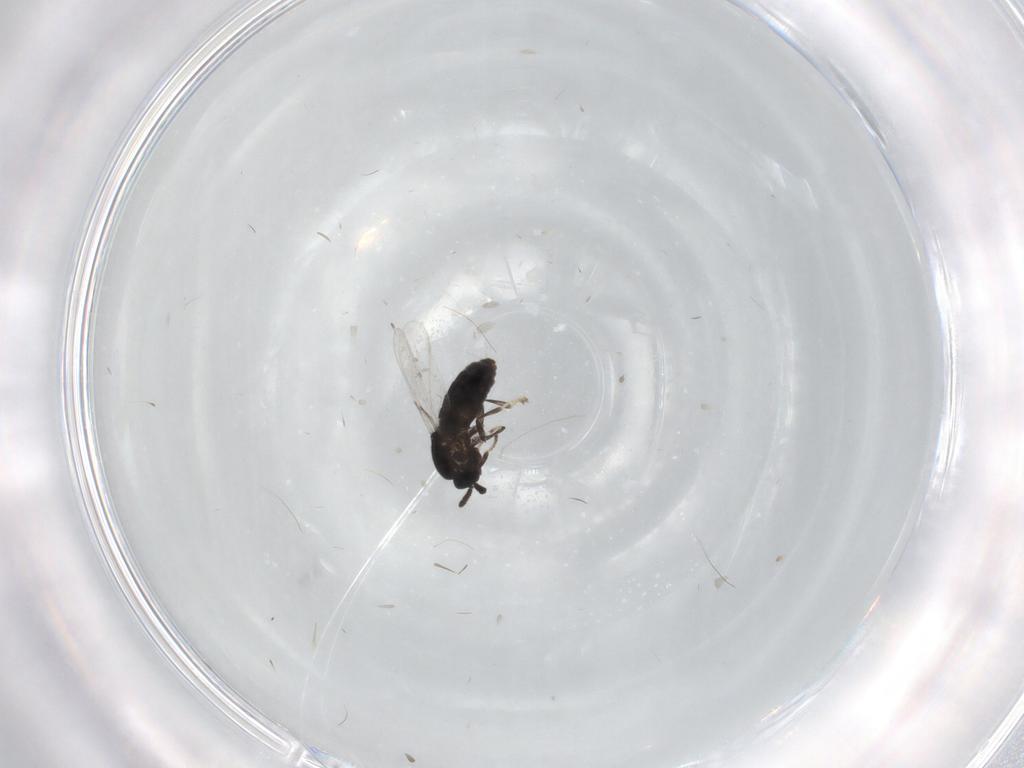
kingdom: Animalia
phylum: Arthropoda
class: Insecta
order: Diptera
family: Scatopsidae
